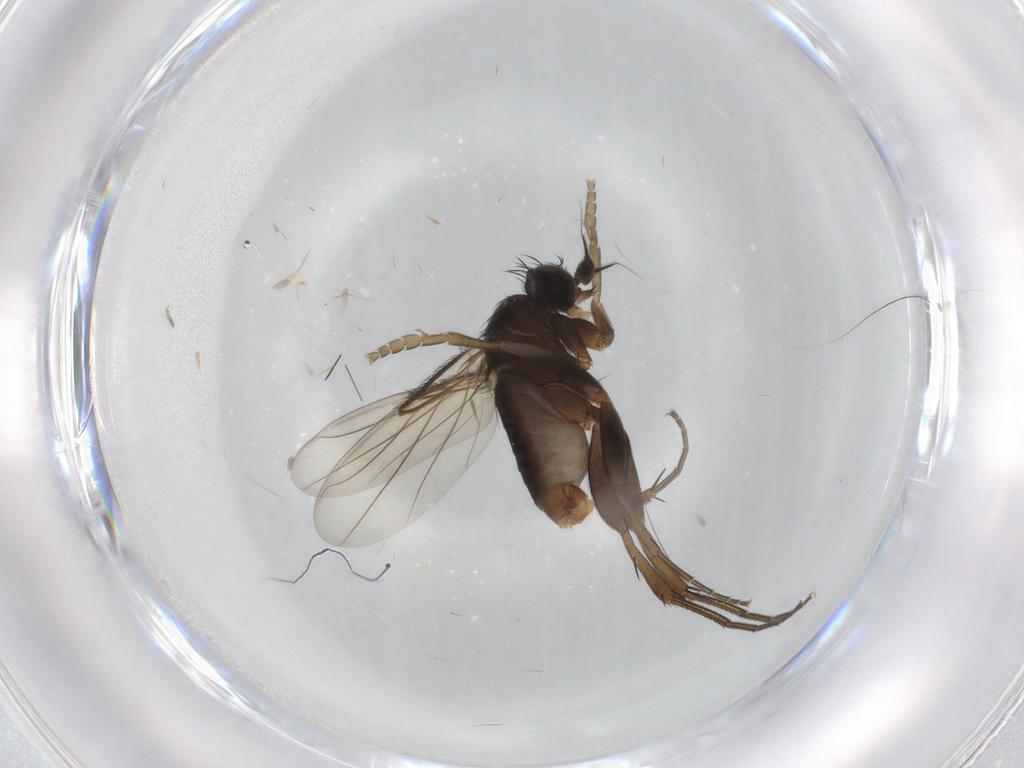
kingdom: Animalia
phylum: Arthropoda
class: Insecta
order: Diptera
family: Phoridae
